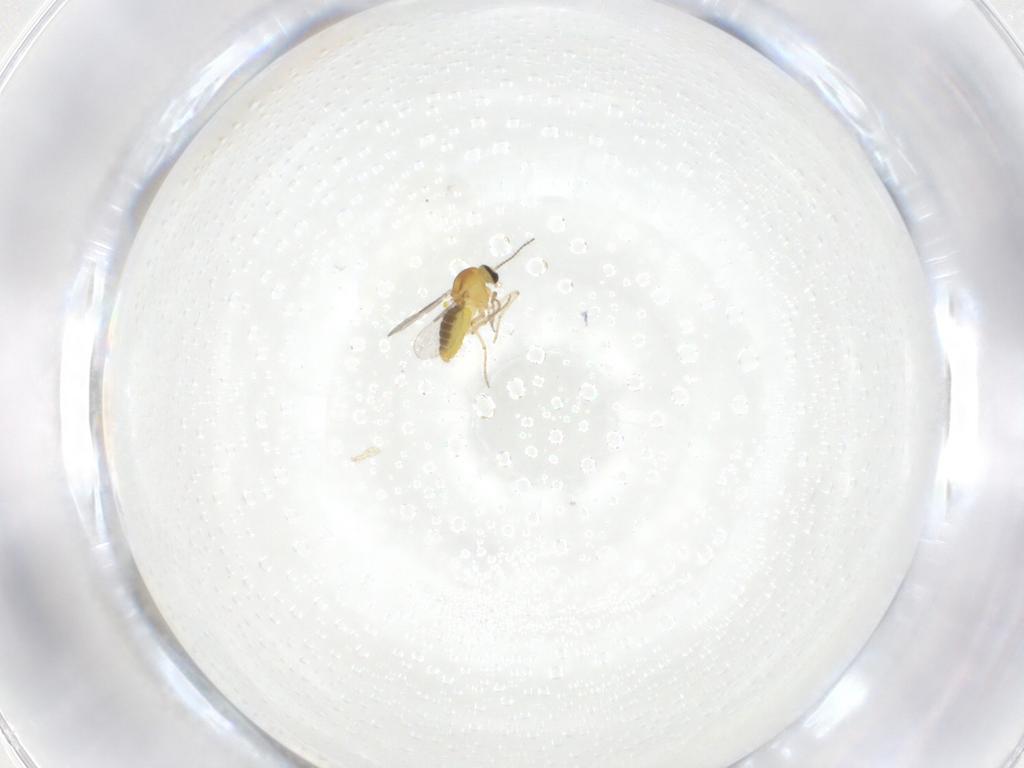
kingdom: Animalia
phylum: Arthropoda
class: Insecta
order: Diptera
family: Ceratopogonidae
